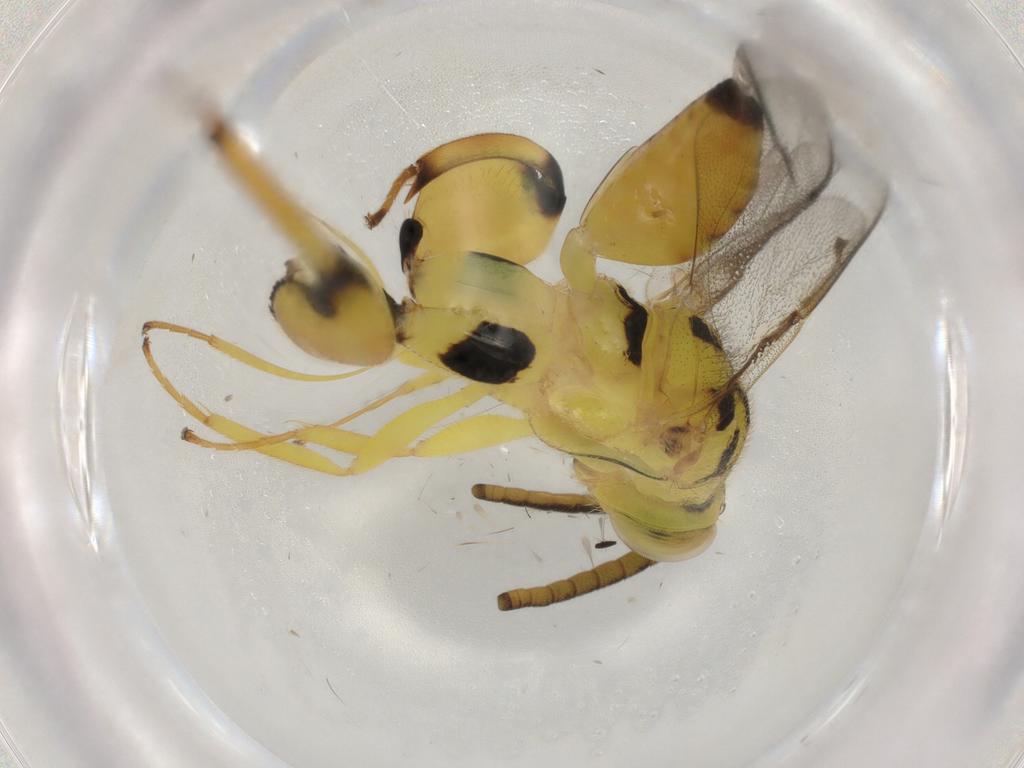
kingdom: Animalia
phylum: Arthropoda
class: Insecta
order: Hymenoptera
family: Chalcididae
